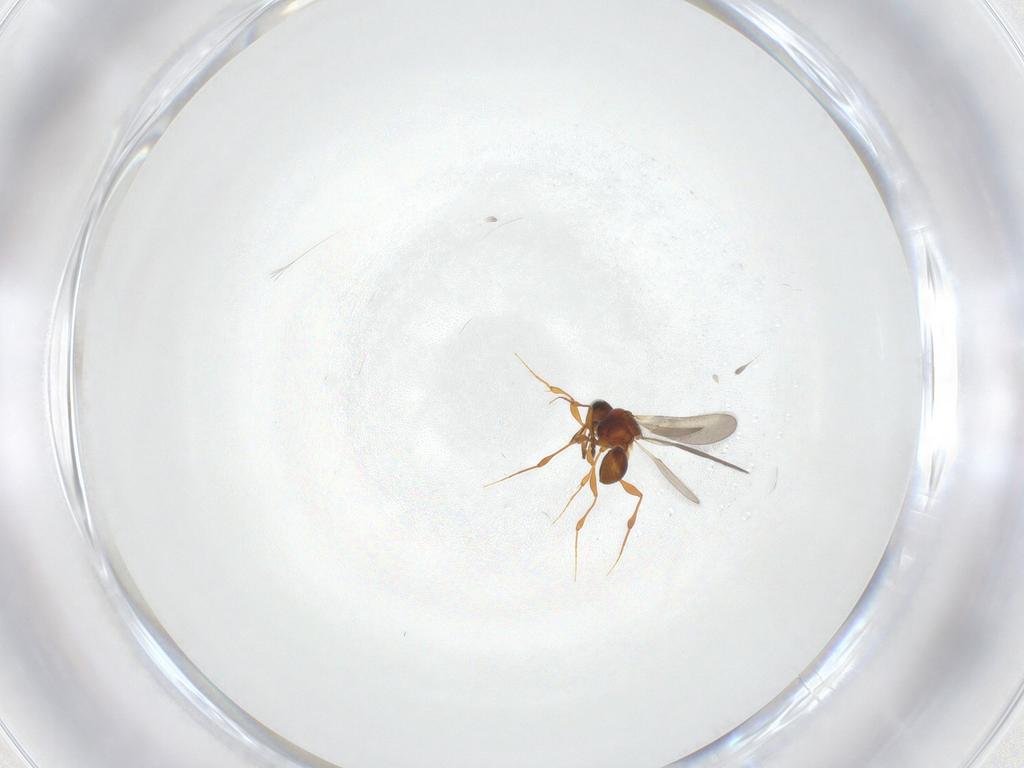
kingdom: Animalia
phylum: Arthropoda
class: Insecta
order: Hymenoptera
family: Platygastridae
